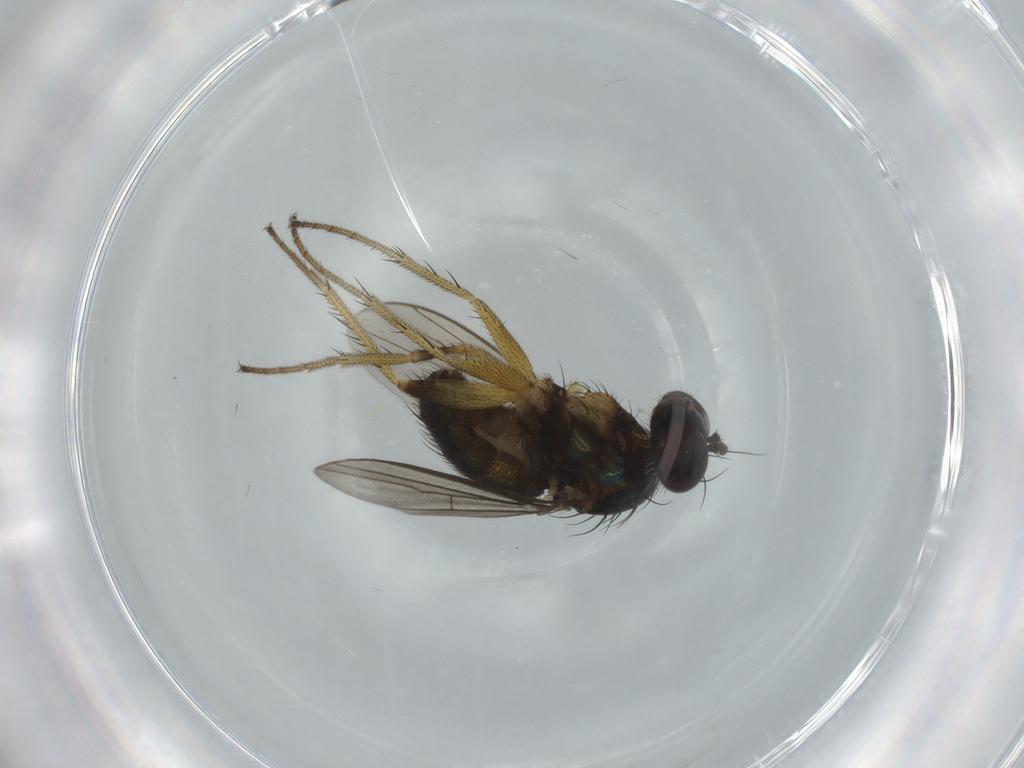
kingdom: Animalia
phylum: Arthropoda
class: Insecta
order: Diptera
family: Dolichopodidae
